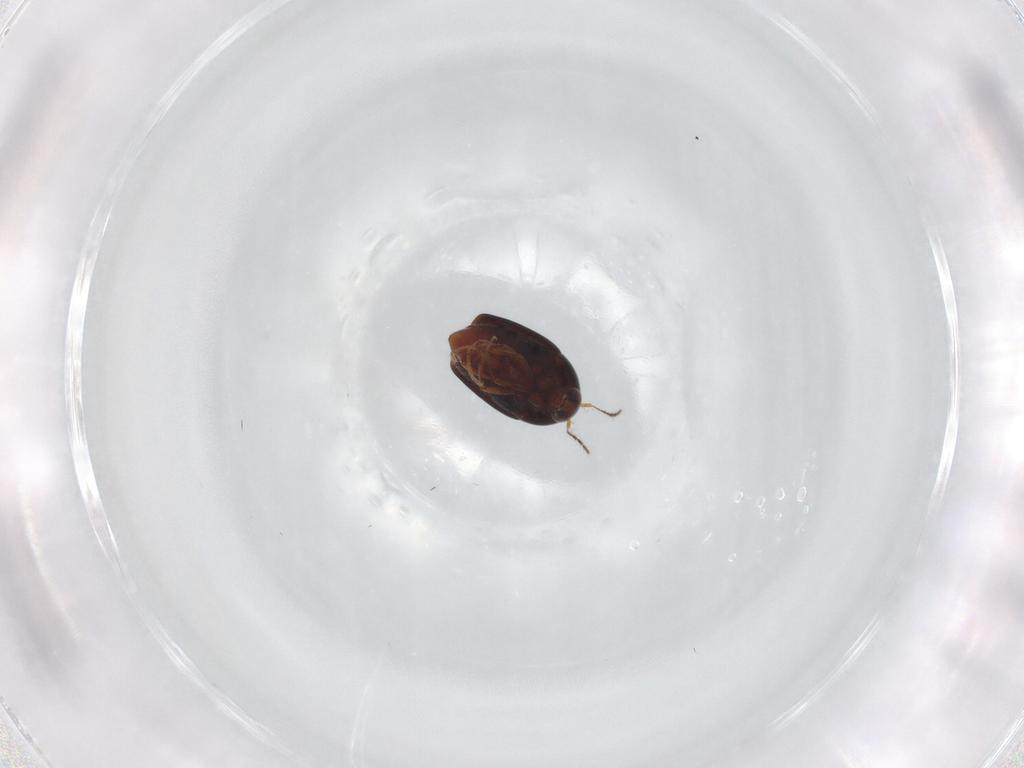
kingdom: Animalia
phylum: Arthropoda
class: Insecta
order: Coleoptera
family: Staphylinidae
